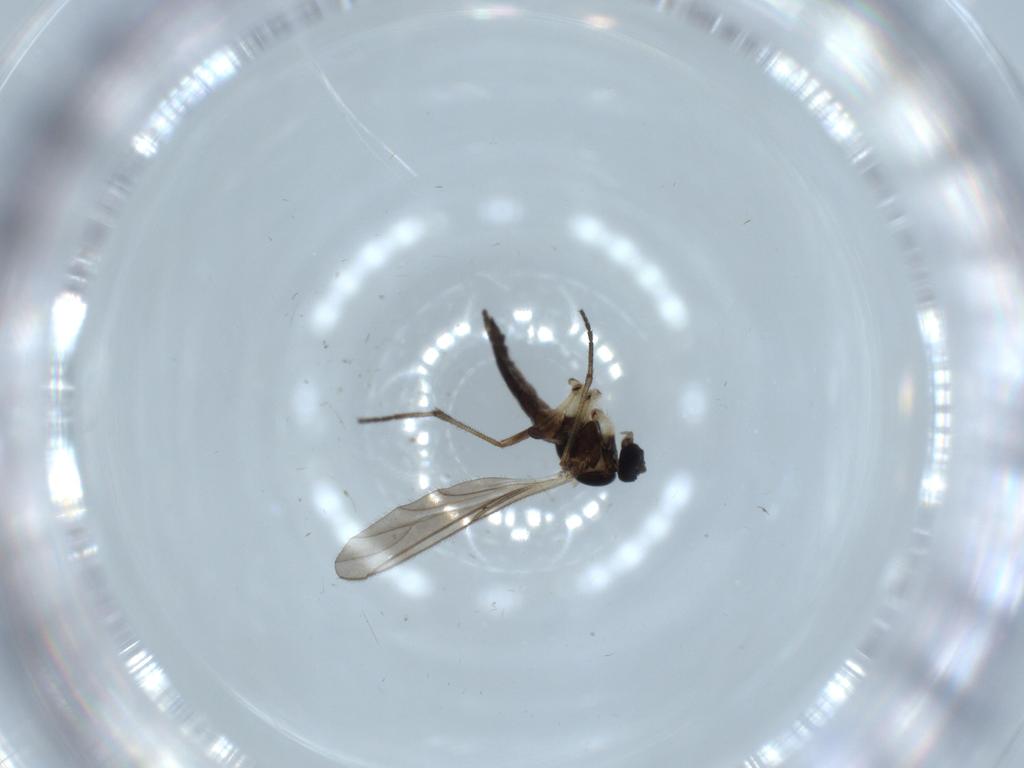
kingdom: Animalia
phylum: Arthropoda
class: Insecta
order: Diptera
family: Sciaridae
